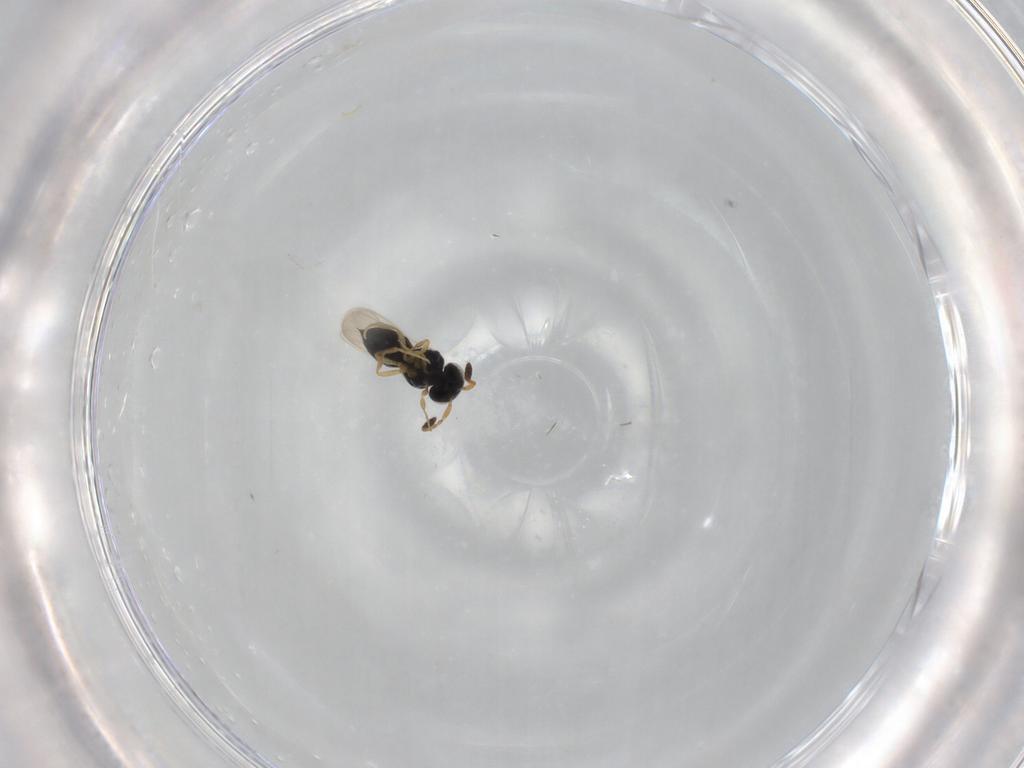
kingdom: Animalia
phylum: Arthropoda
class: Insecta
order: Hymenoptera
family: Scelionidae
